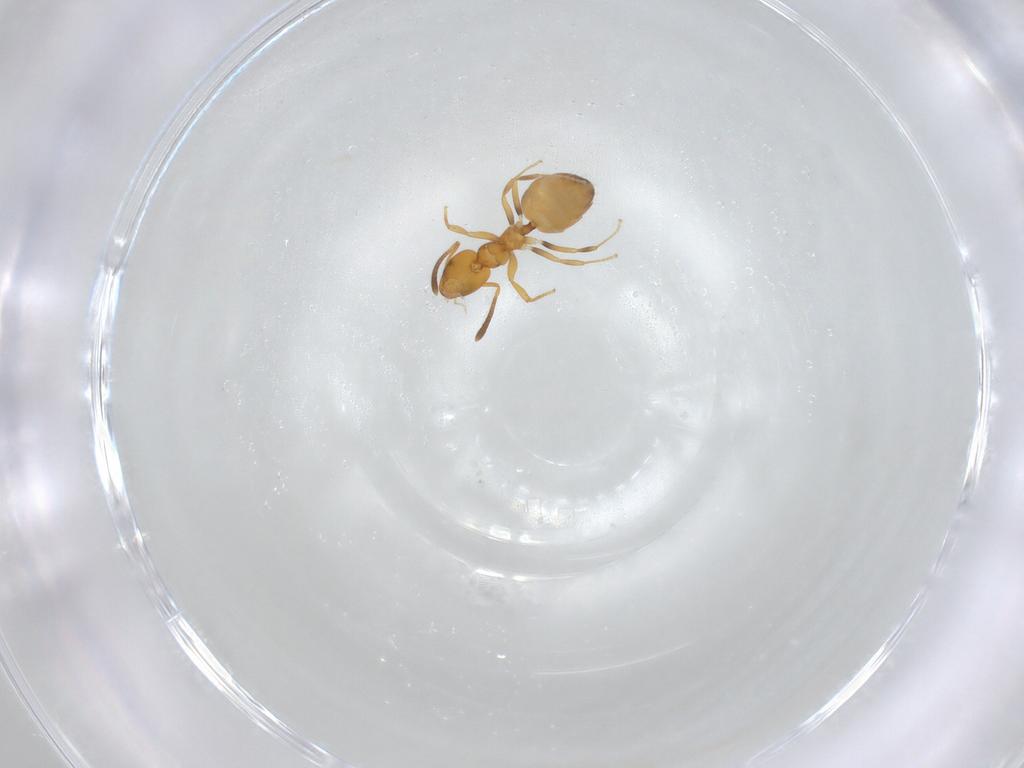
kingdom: Animalia
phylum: Arthropoda
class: Insecta
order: Hymenoptera
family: Formicidae
